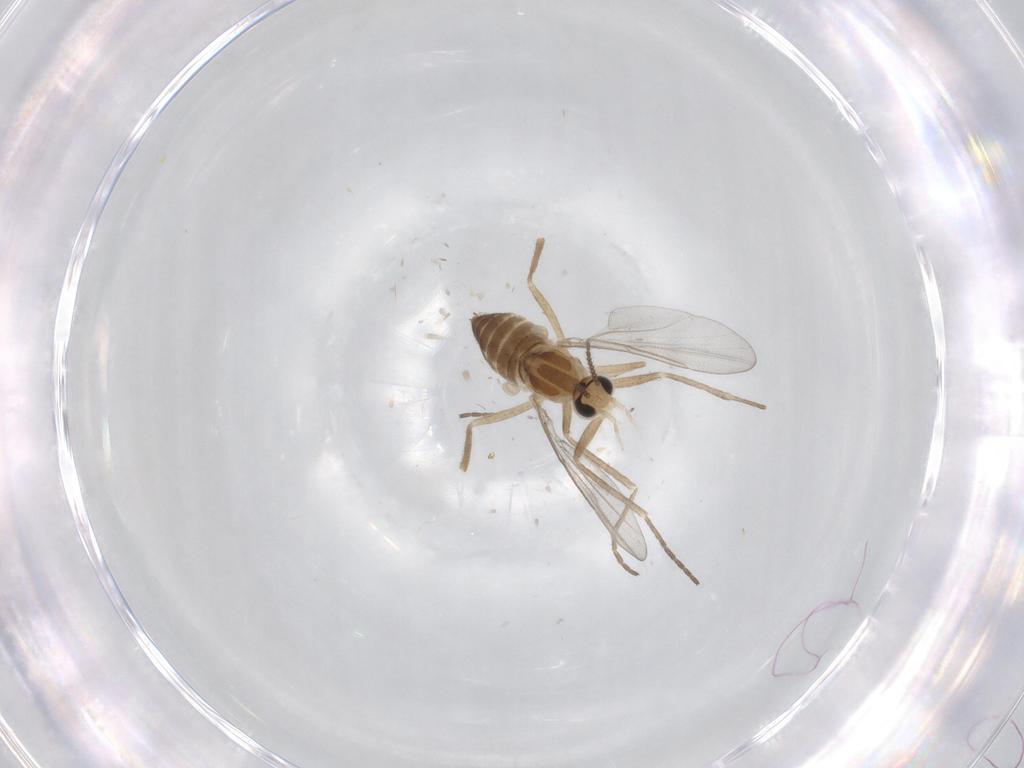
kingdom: Animalia
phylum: Arthropoda
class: Insecta
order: Diptera
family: Cecidomyiidae
